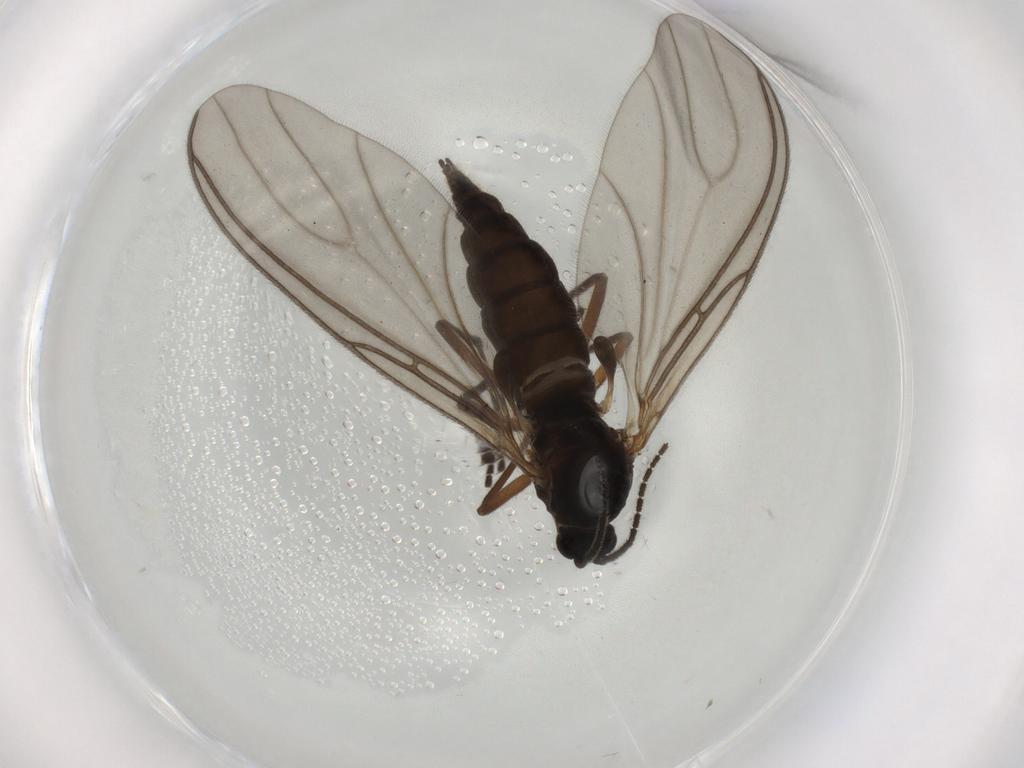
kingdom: Animalia
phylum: Arthropoda
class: Insecta
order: Diptera
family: Sciaridae
